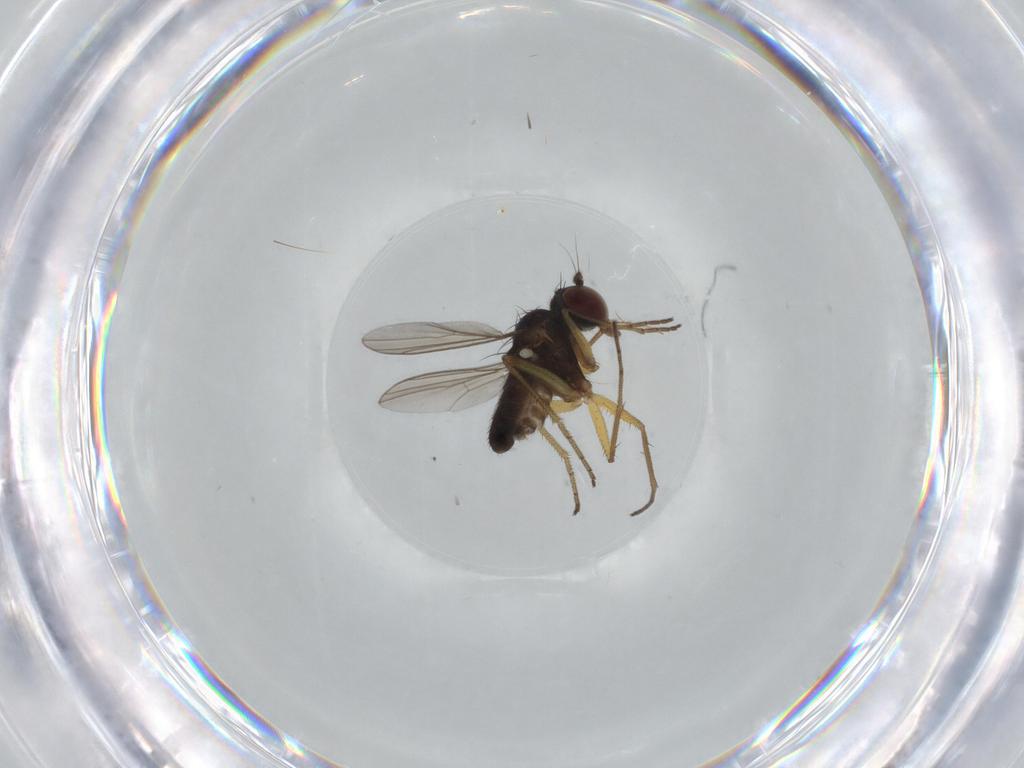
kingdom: Animalia
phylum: Arthropoda
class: Insecta
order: Diptera
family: Dolichopodidae
